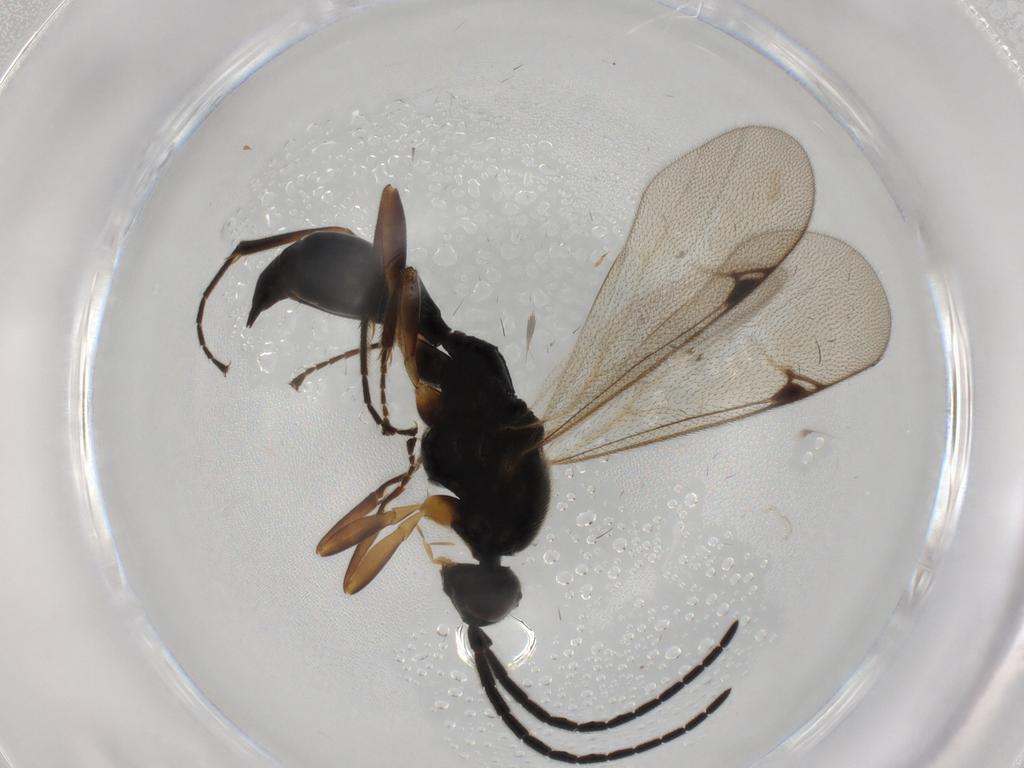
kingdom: Animalia
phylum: Arthropoda
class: Insecta
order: Hymenoptera
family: Proctotrupidae
